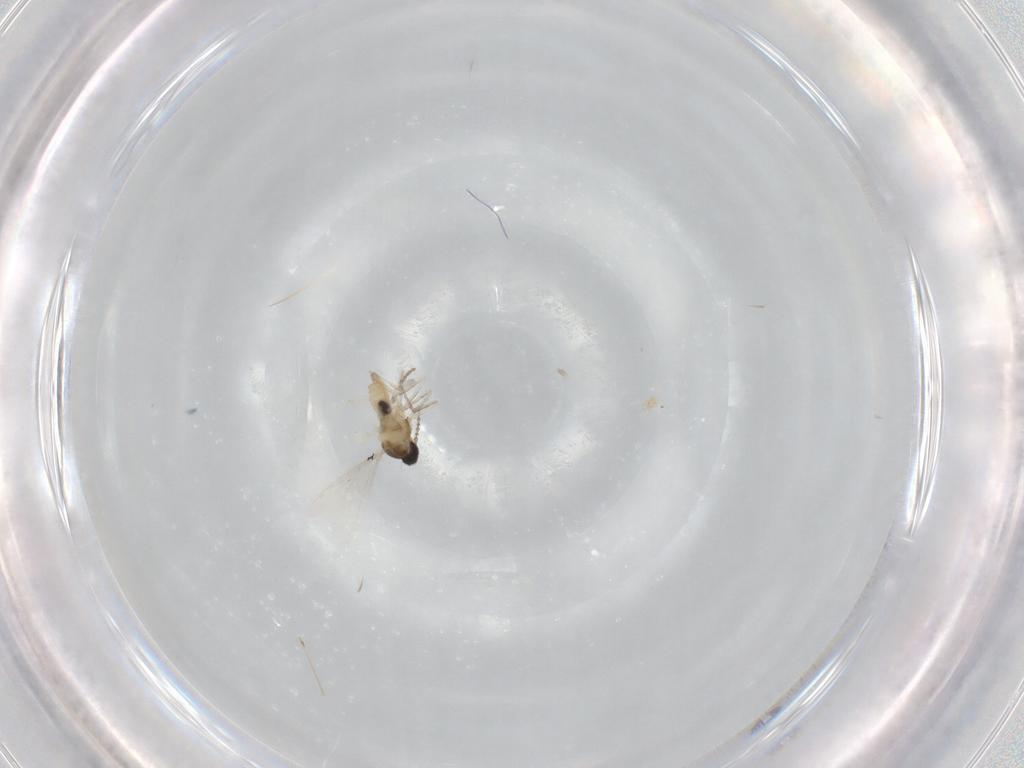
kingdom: Animalia
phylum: Arthropoda
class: Insecta
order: Diptera
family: Cecidomyiidae
